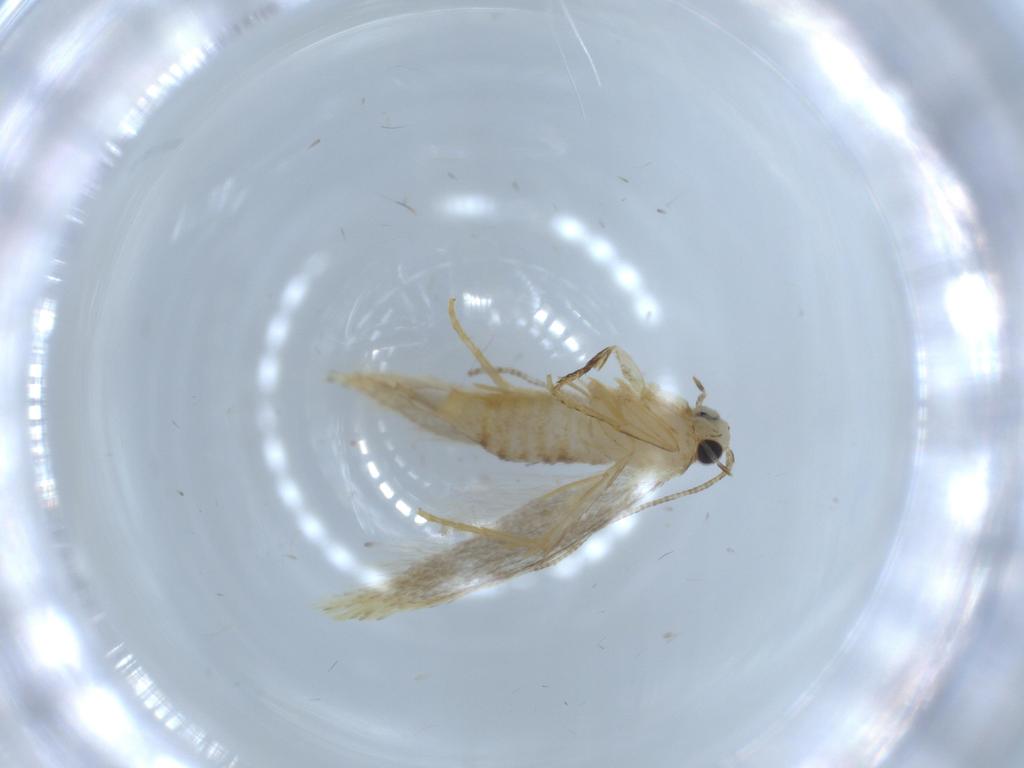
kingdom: Animalia
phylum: Arthropoda
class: Insecta
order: Lepidoptera
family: Tineidae
